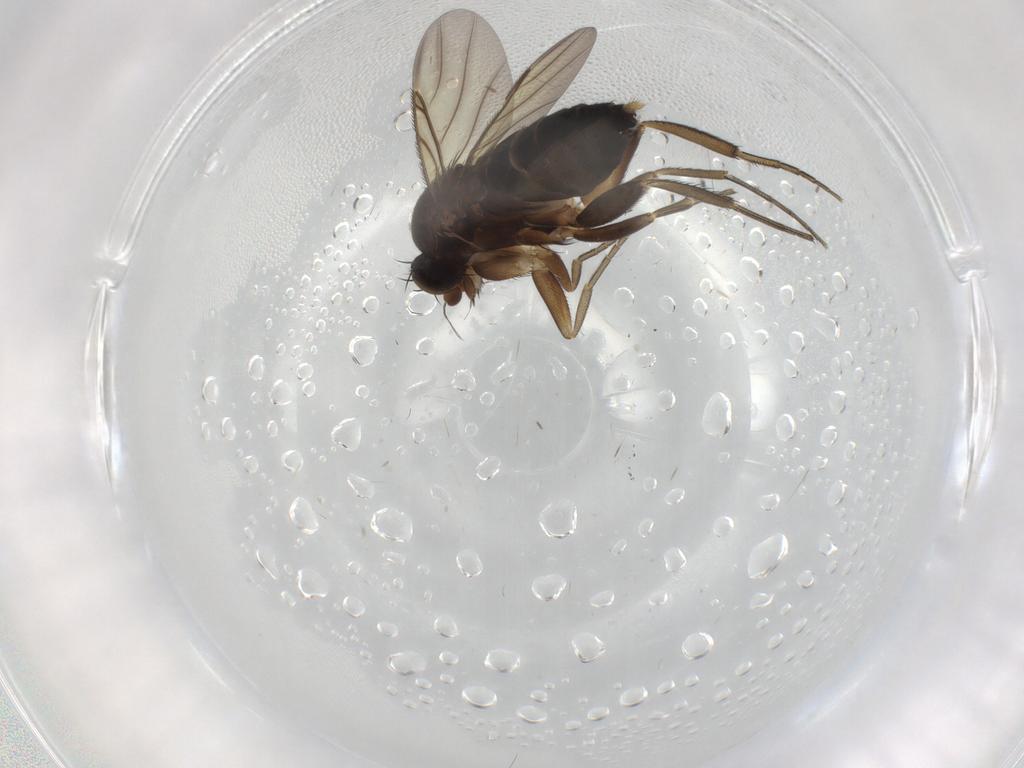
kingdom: Animalia
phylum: Arthropoda
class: Insecta
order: Diptera
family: Phoridae
